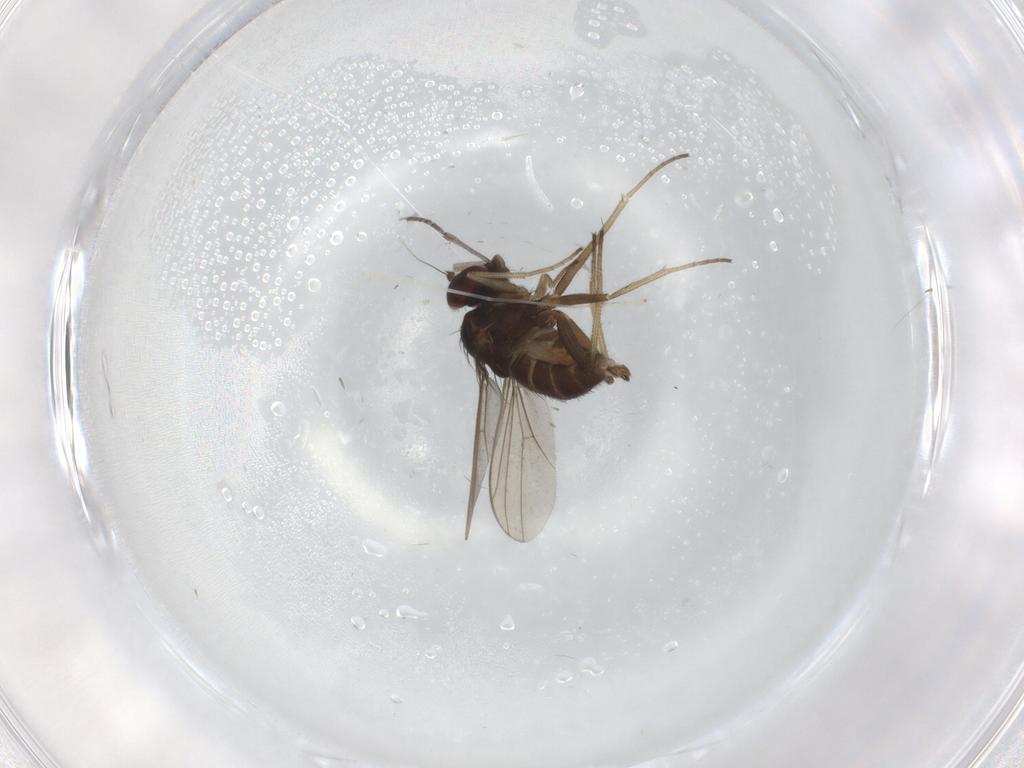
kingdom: Animalia
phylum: Arthropoda
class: Insecta
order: Diptera
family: Dolichopodidae
